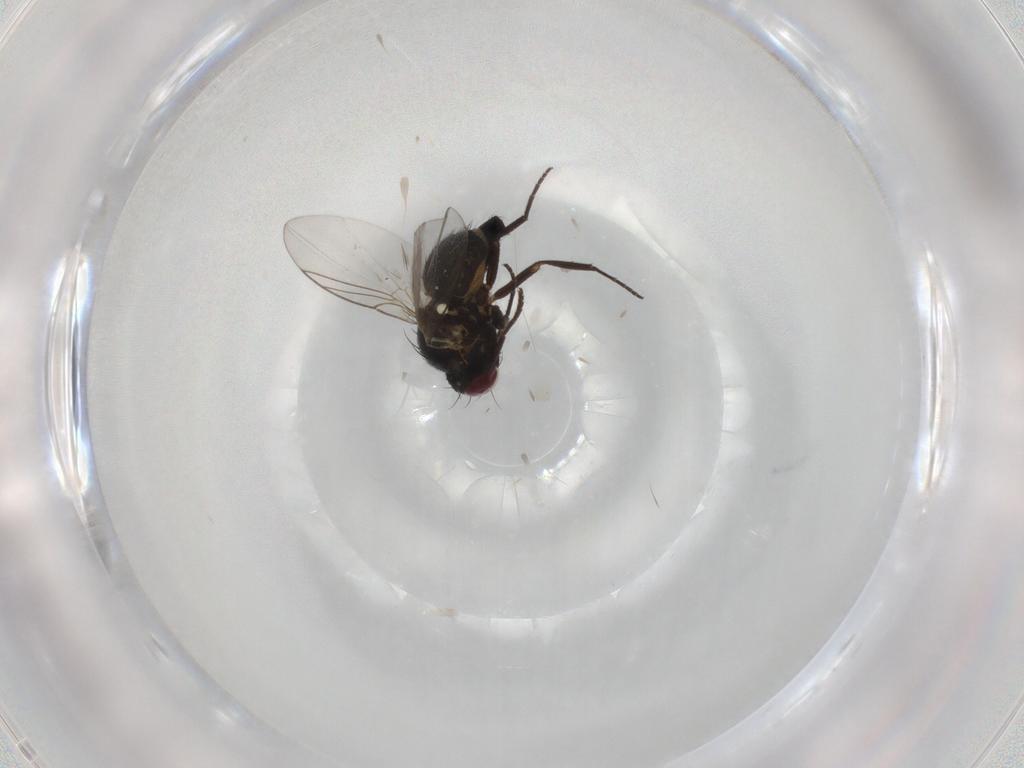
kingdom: Animalia
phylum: Arthropoda
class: Insecta
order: Diptera
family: Agromyzidae
